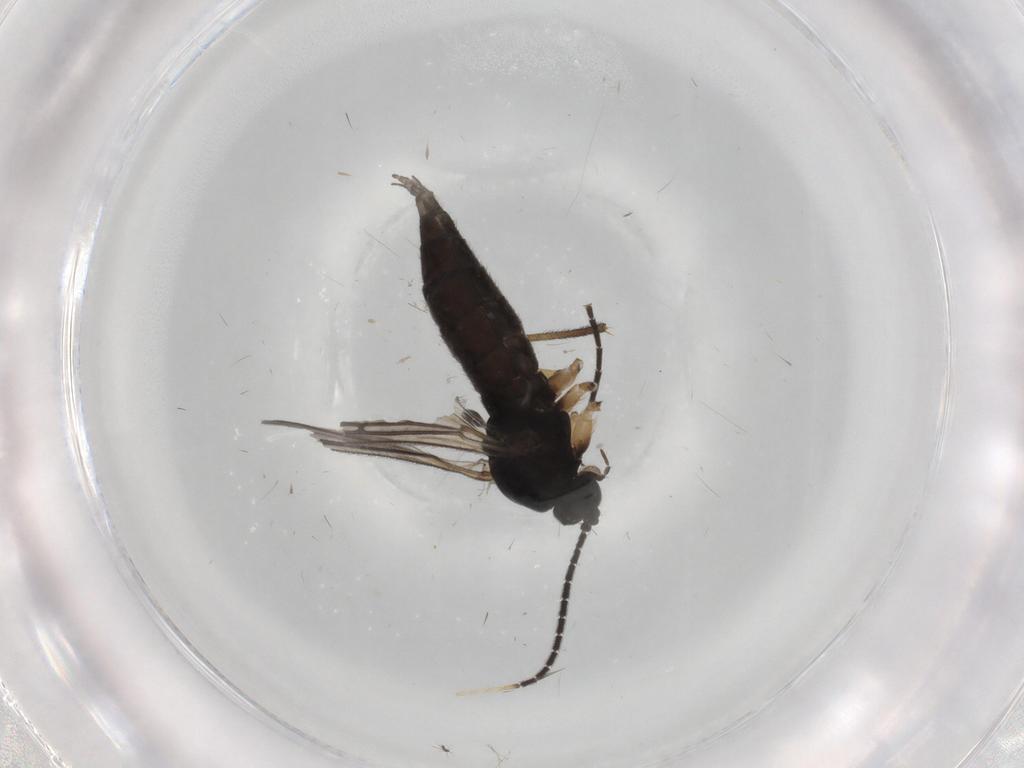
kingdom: Animalia
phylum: Arthropoda
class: Insecta
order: Diptera
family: Sciaridae
